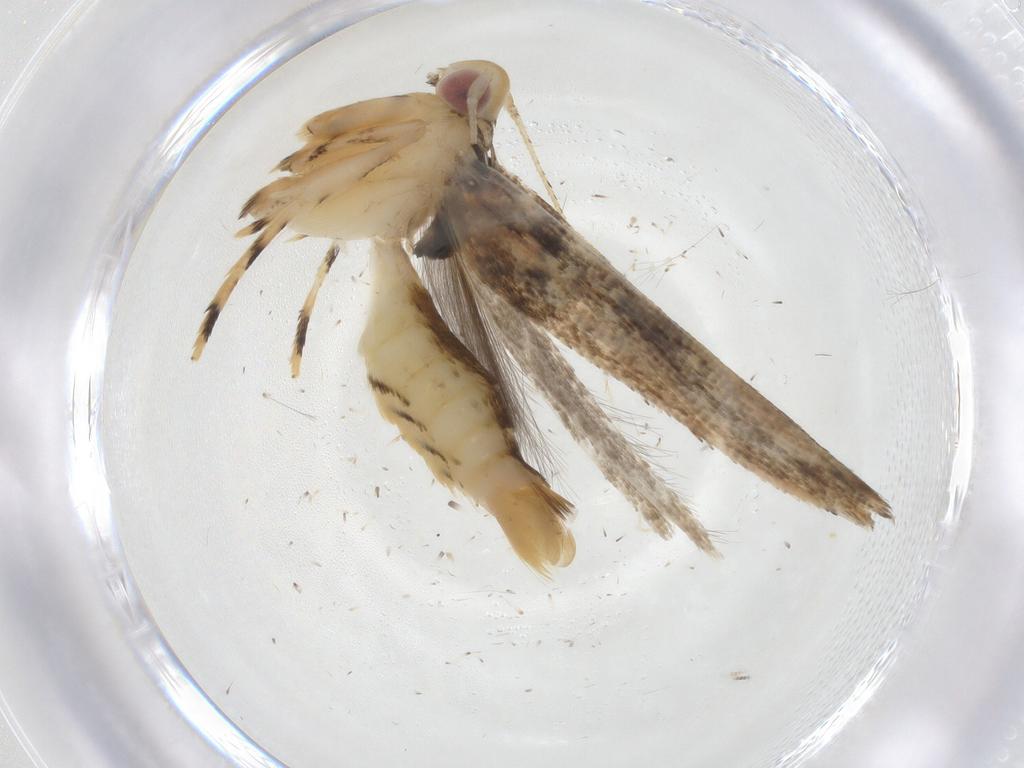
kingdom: Animalia
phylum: Arthropoda
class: Insecta
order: Lepidoptera
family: Cosmopterigidae
